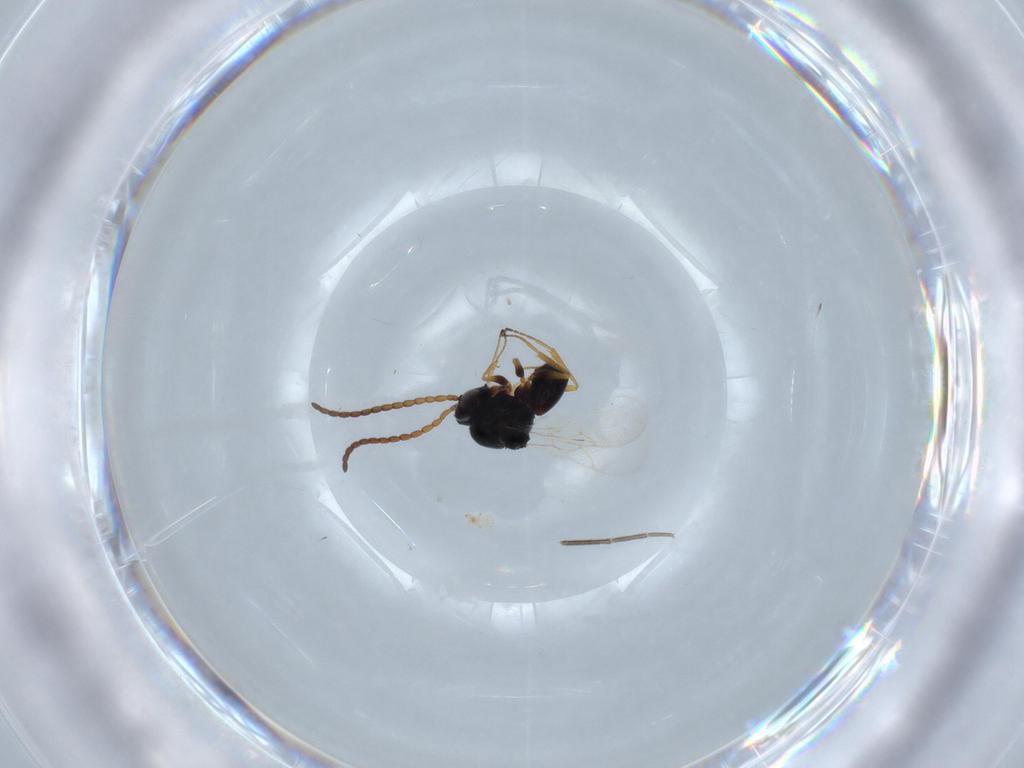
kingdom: Animalia
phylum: Arthropoda
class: Insecta
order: Hymenoptera
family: Figitidae
